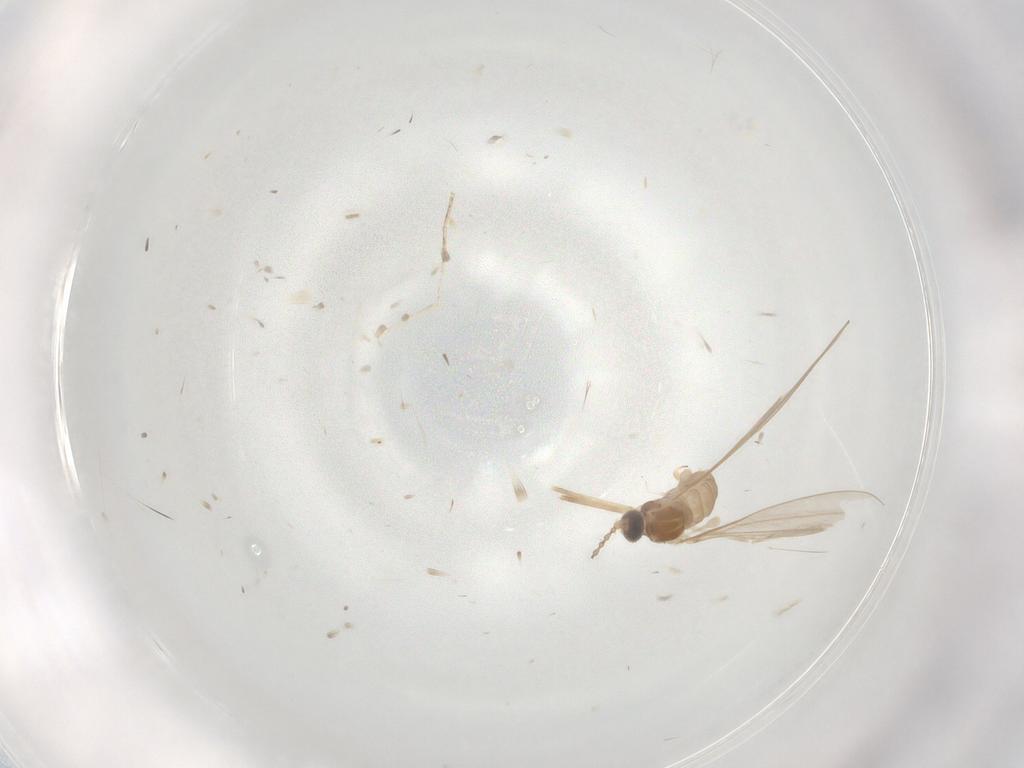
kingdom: Animalia
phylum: Arthropoda
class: Insecta
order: Diptera
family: Cecidomyiidae
